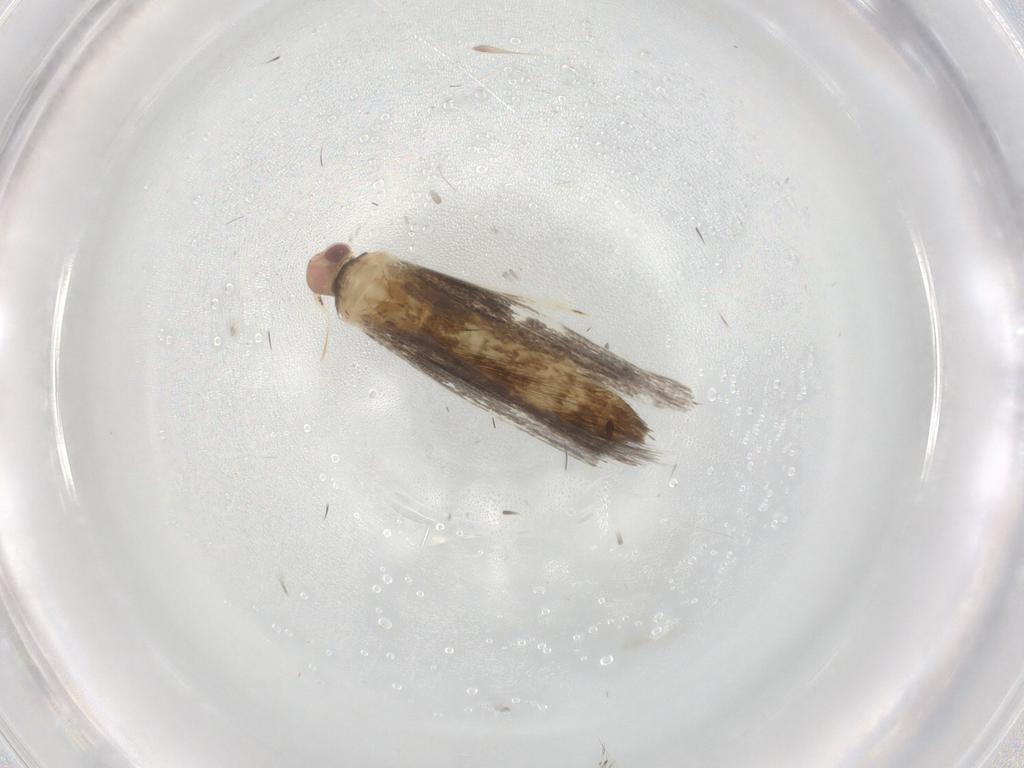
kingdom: Animalia
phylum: Arthropoda
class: Insecta
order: Lepidoptera
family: Gracillariidae
